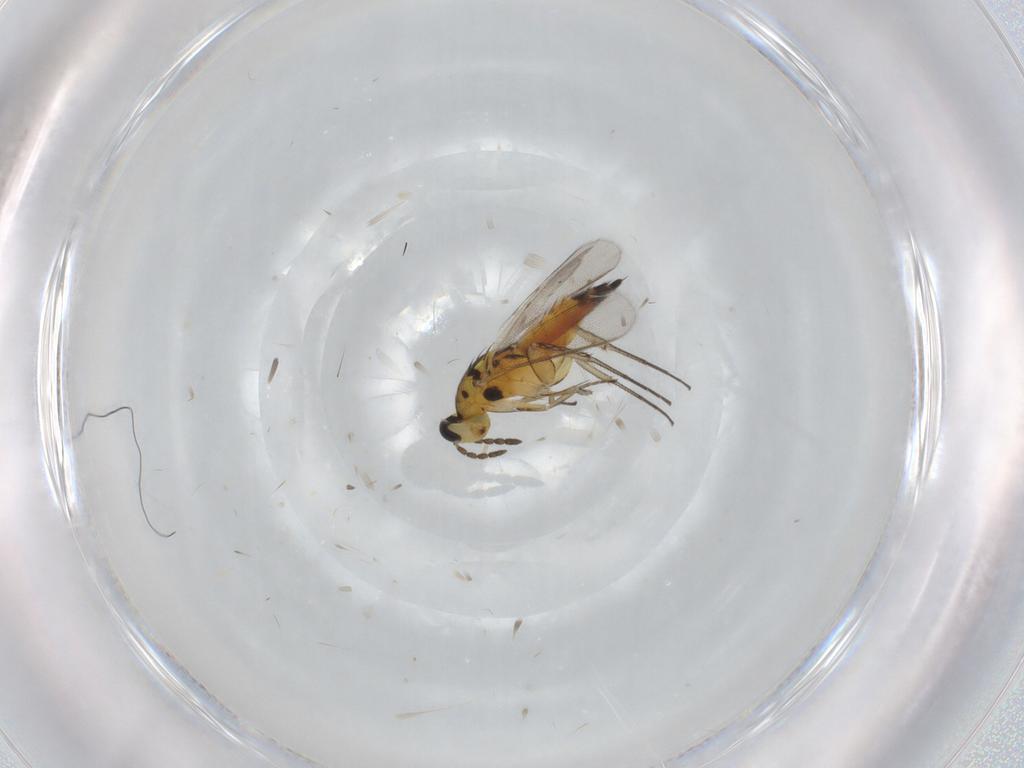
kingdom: Animalia
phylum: Arthropoda
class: Insecta
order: Hymenoptera
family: Eulophidae
